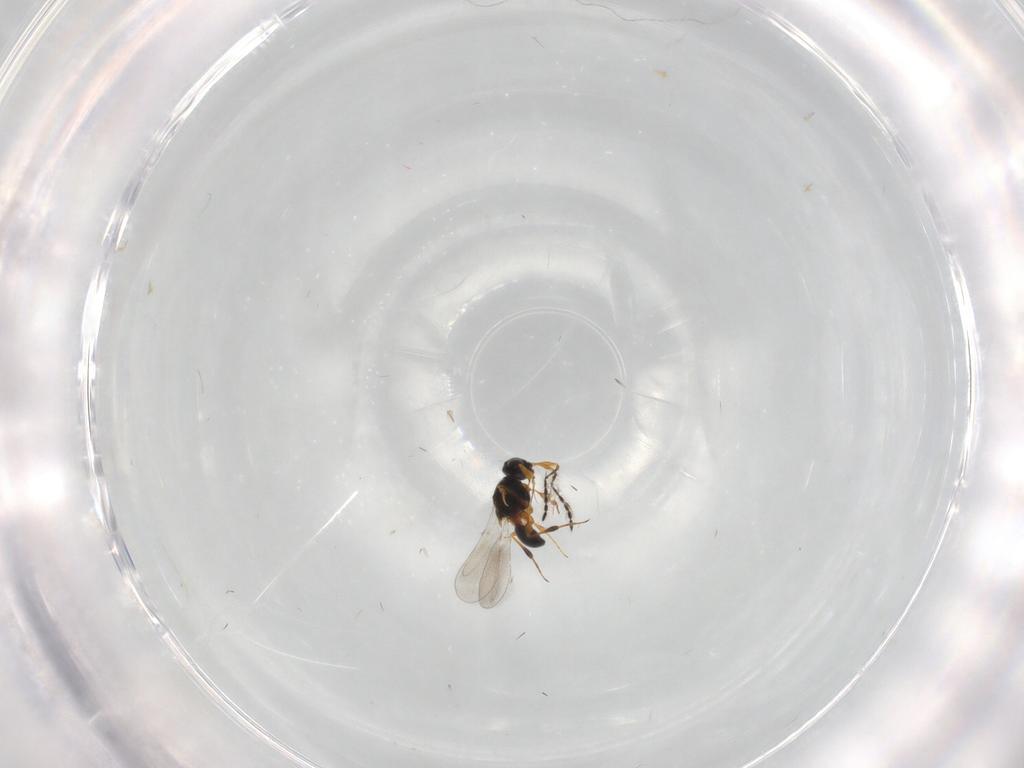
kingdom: Animalia
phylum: Arthropoda
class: Insecta
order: Hymenoptera
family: Platygastridae
